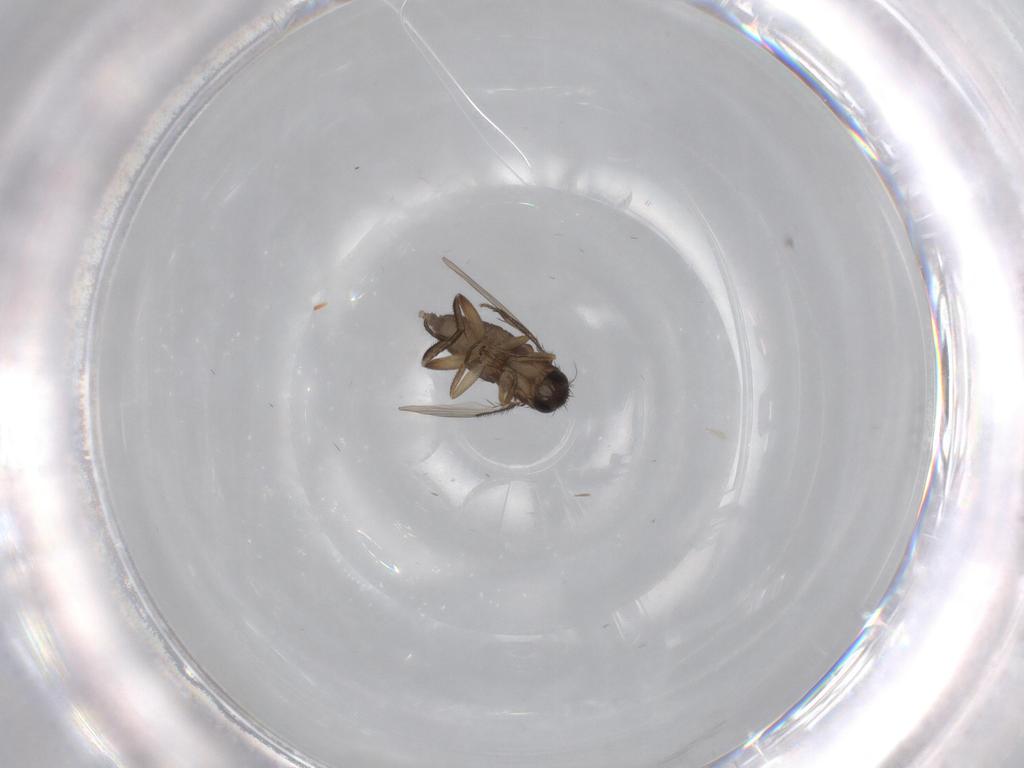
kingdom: Animalia
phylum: Arthropoda
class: Insecta
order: Diptera
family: Phoridae
